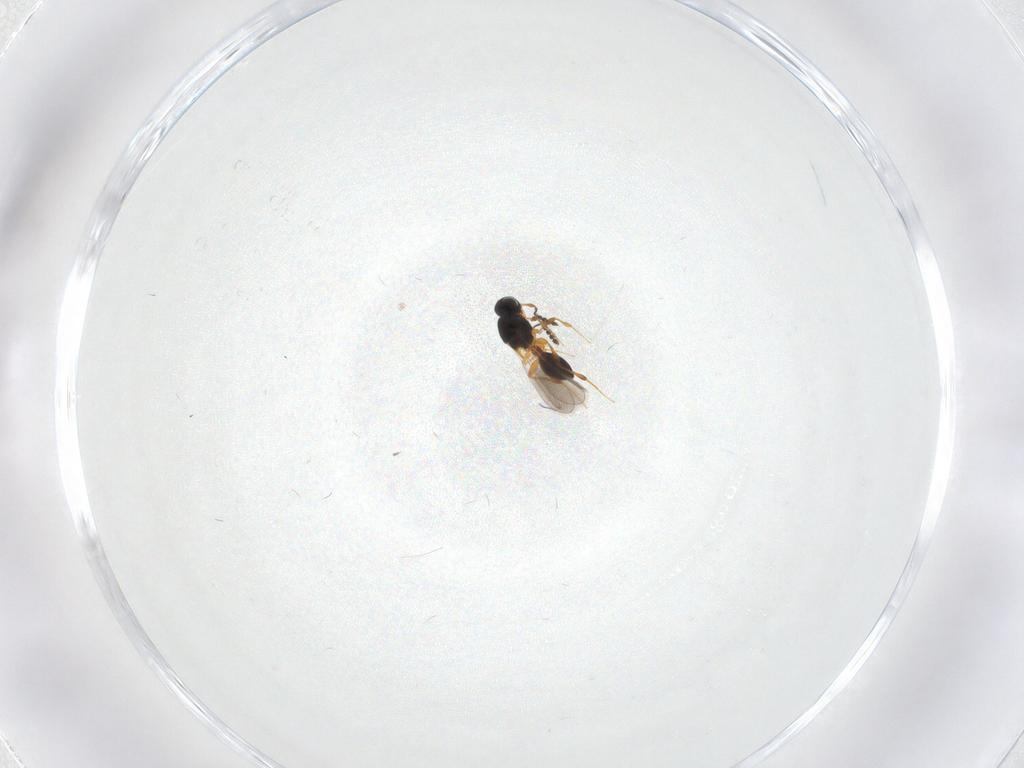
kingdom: Animalia
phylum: Arthropoda
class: Insecta
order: Hymenoptera
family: Platygastridae
